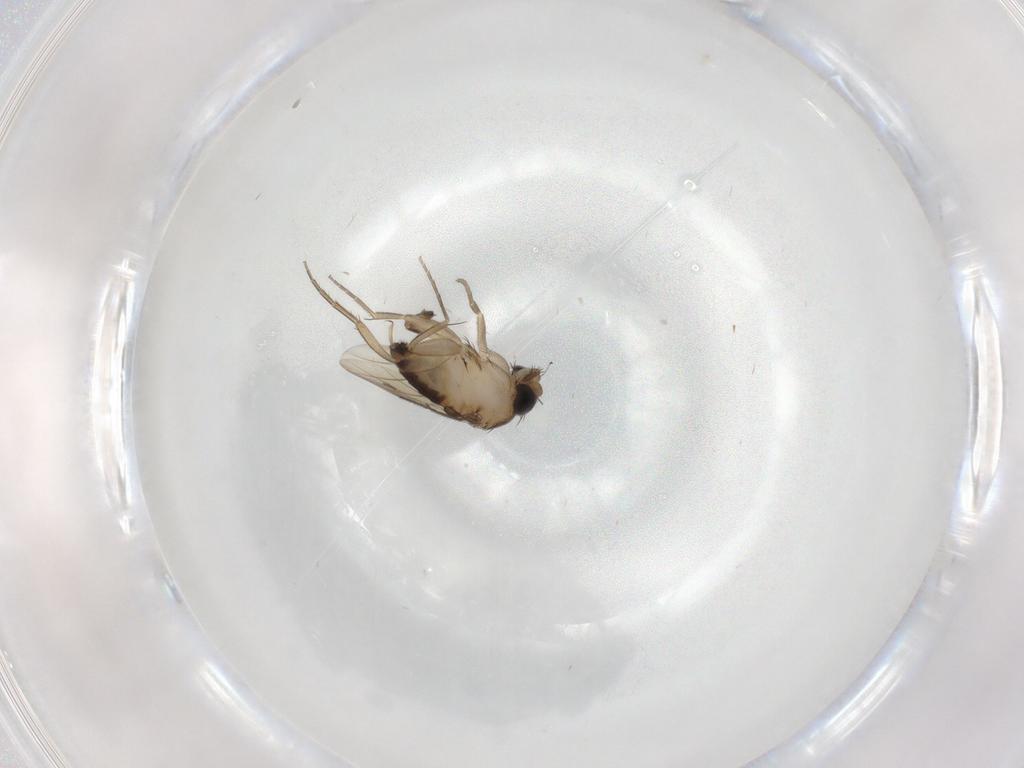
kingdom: Animalia
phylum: Arthropoda
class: Insecta
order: Diptera
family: Phoridae
